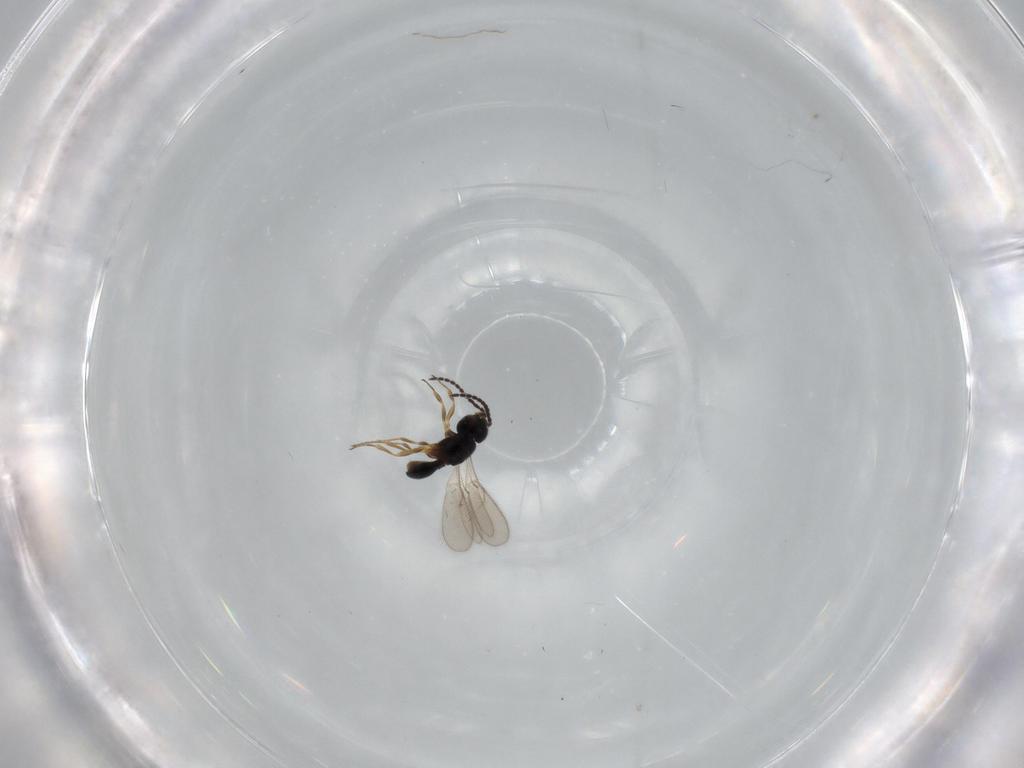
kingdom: Animalia
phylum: Arthropoda
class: Insecta
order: Hymenoptera
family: Scelionidae
